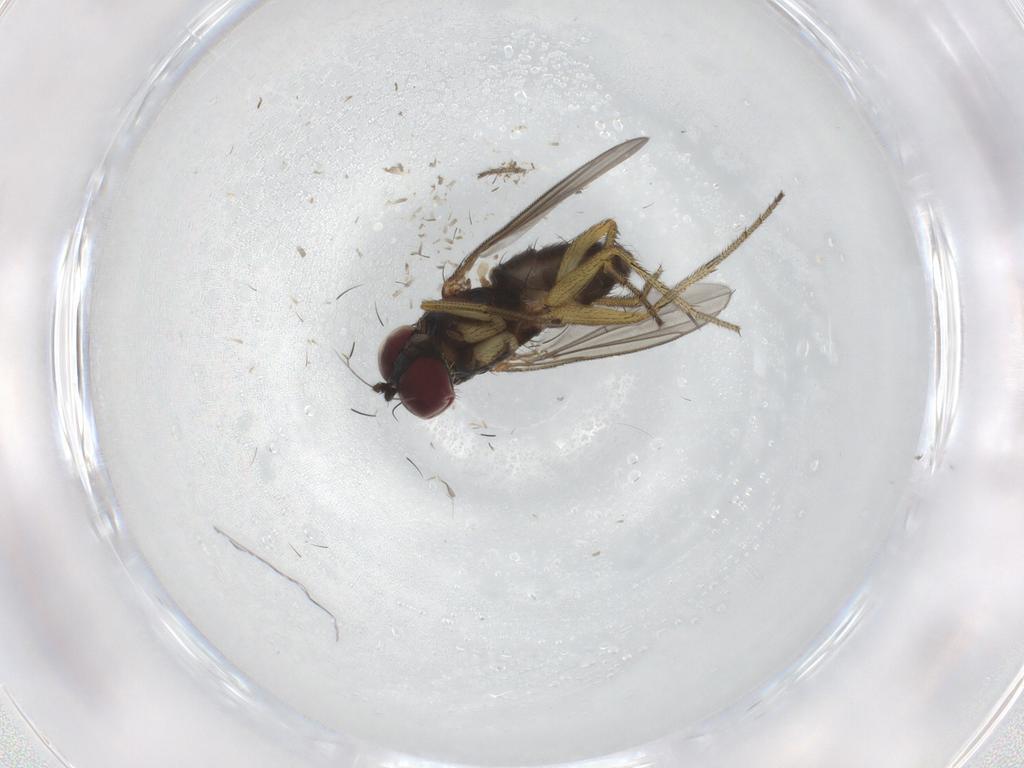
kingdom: Animalia
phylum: Arthropoda
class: Insecta
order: Diptera
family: Dolichopodidae
